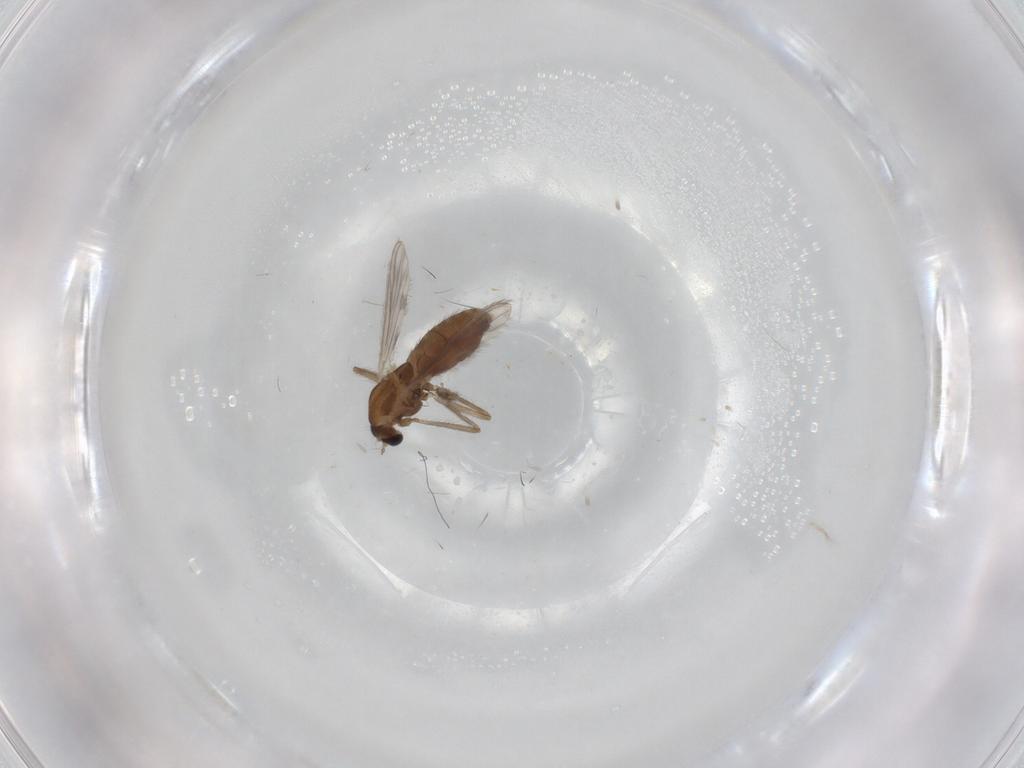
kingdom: Animalia
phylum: Arthropoda
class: Insecta
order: Diptera
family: Chironomidae
